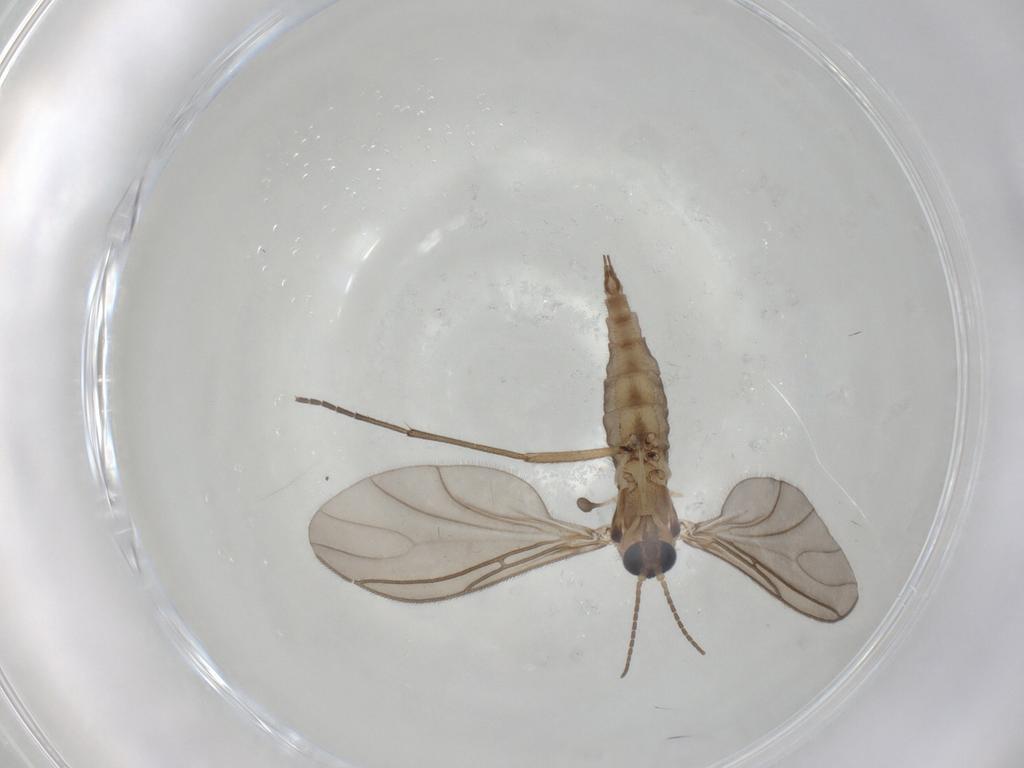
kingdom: Animalia
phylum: Arthropoda
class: Insecta
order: Diptera
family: Sciaridae
